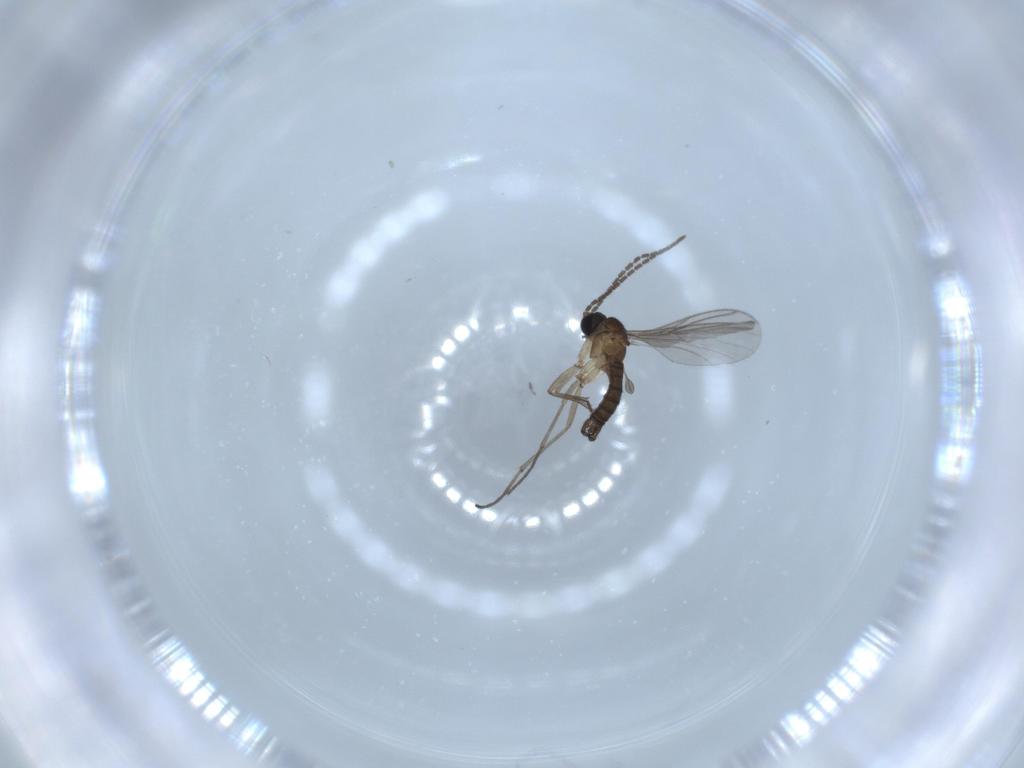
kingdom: Animalia
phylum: Arthropoda
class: Insecta
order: Diptera
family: Sciaridae
